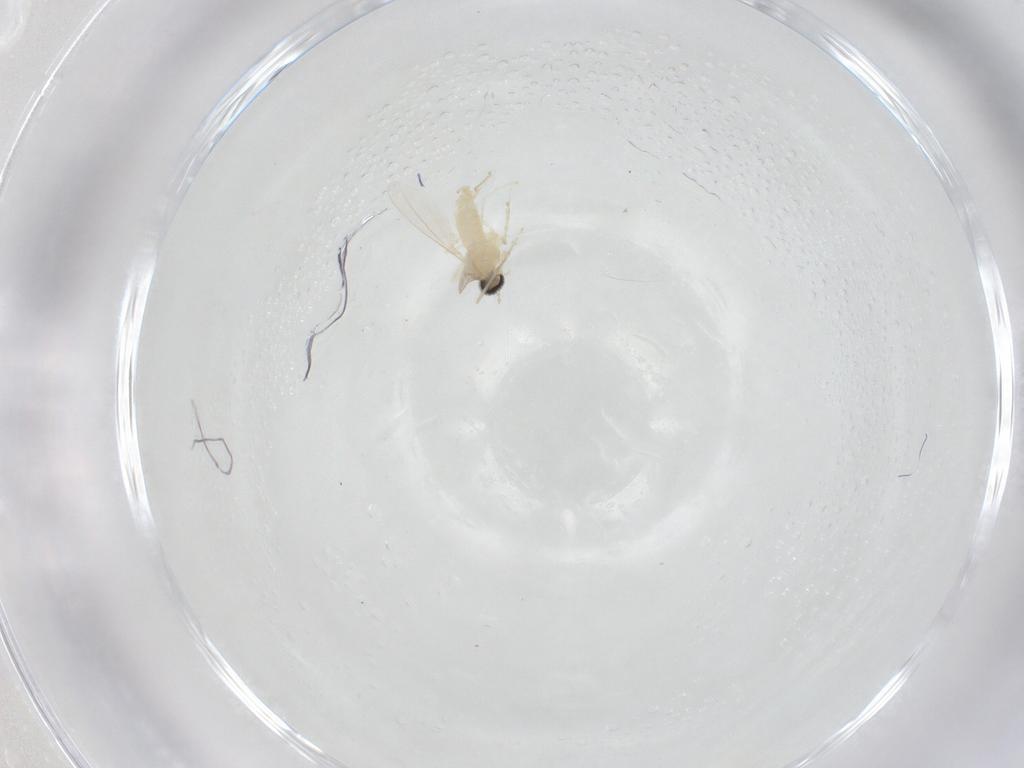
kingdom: Animalia
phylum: Arthropoda
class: Insecta
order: Diptera
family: Cecidomyiidae
